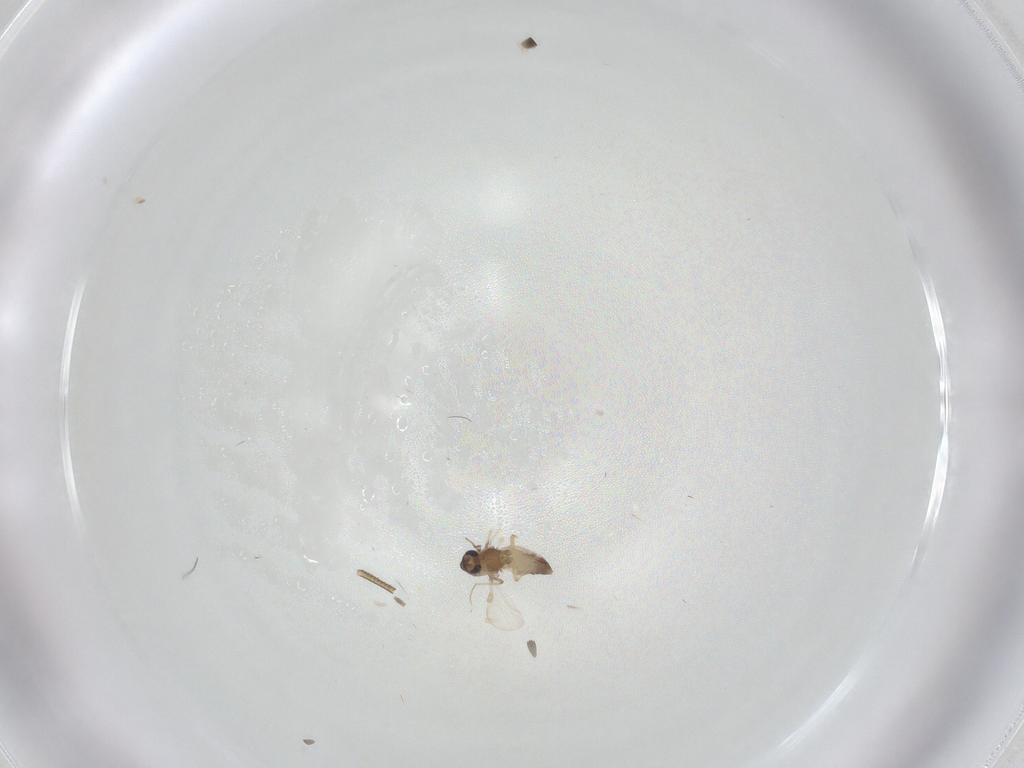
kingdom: Animalia
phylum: Arthropoda
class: Insecta
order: Diptera
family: Chironomidae
